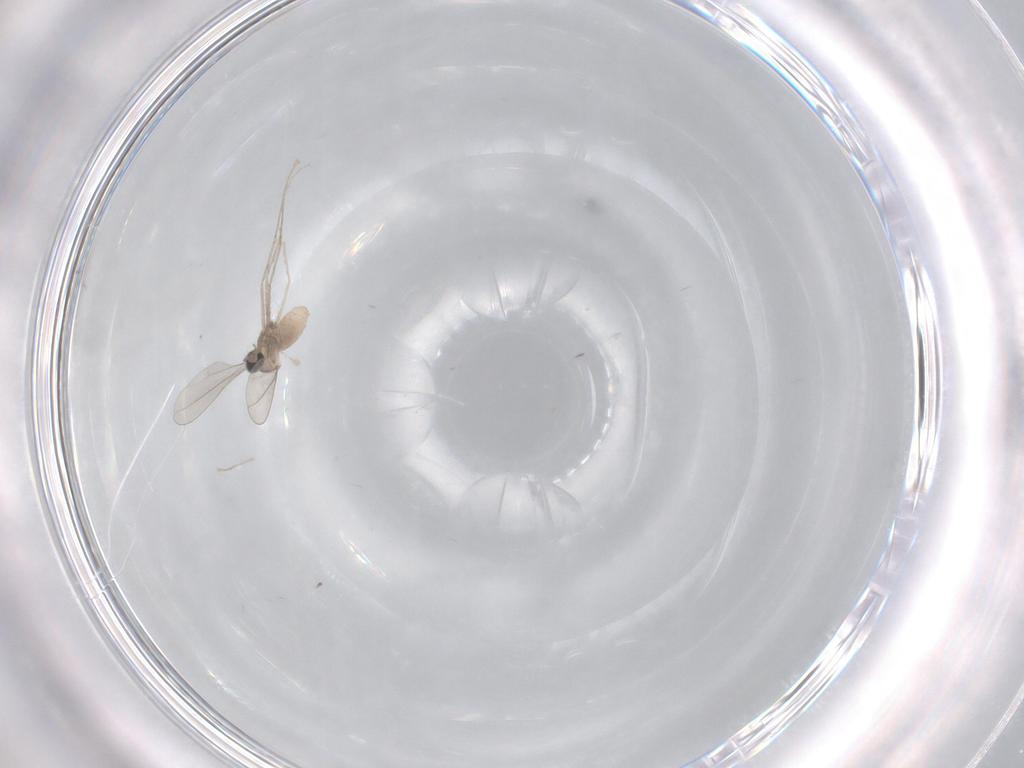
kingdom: Animalia
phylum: Arthropoda
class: Insecta
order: Diptera
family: Cecidomyiidae
